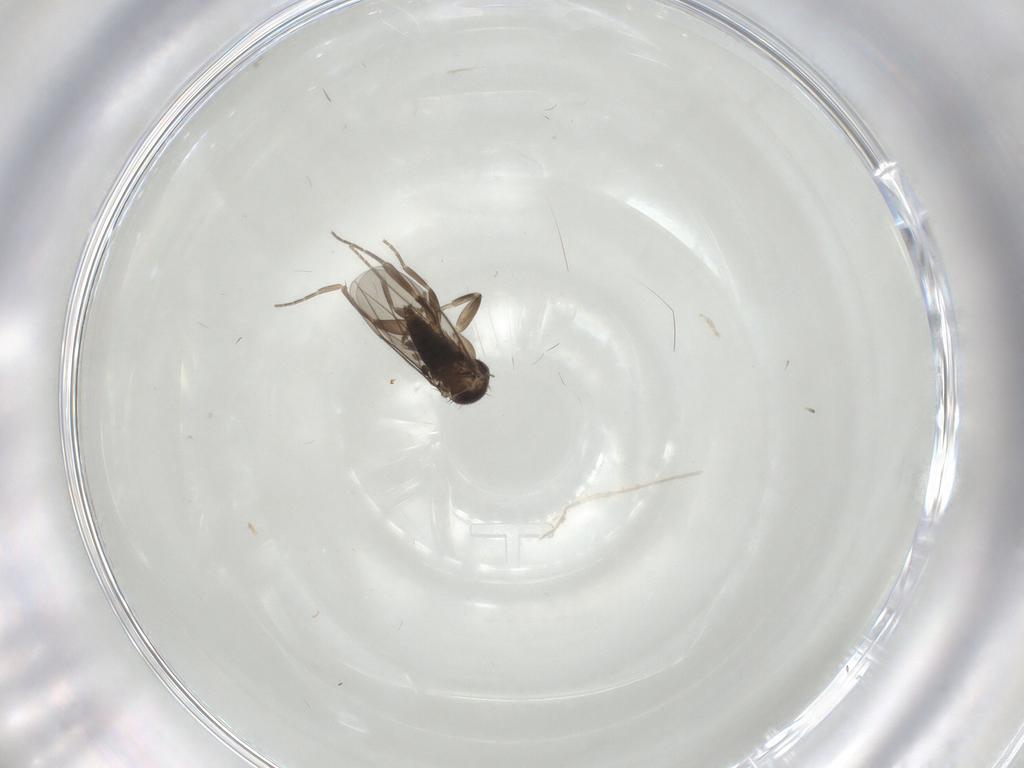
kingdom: Animalia
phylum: Arthropoda
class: Insecta
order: Diptera
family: Phoridae
